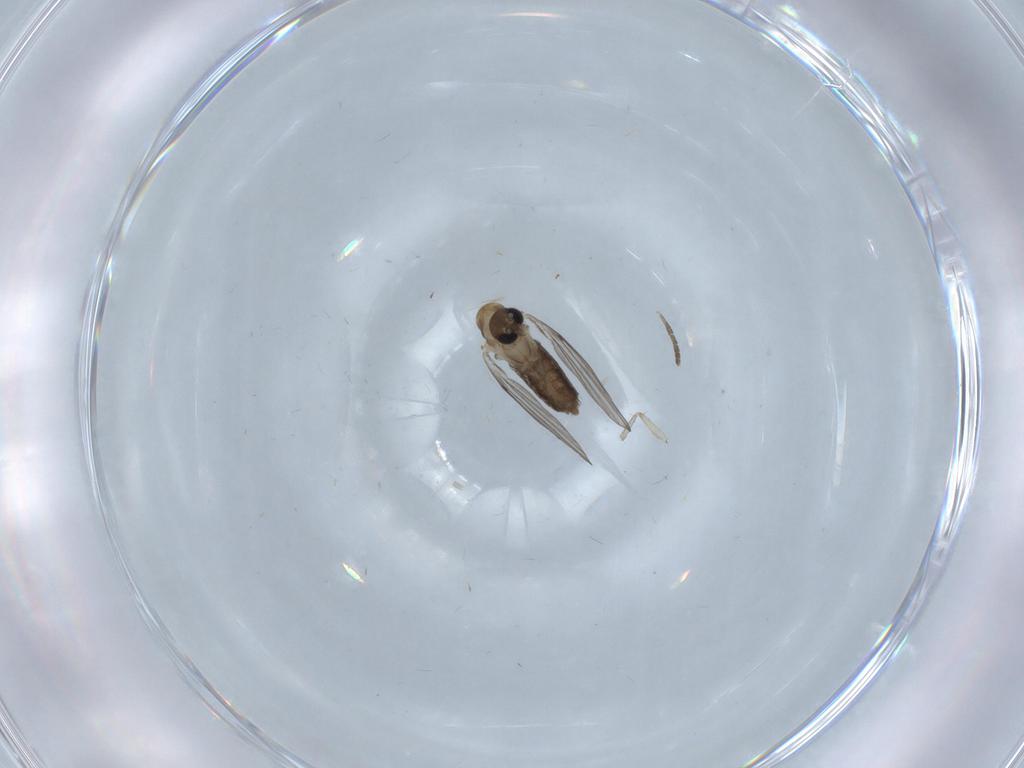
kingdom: Animalia
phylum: Arthropoda
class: Insecta
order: Diptera
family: Psychodidae
